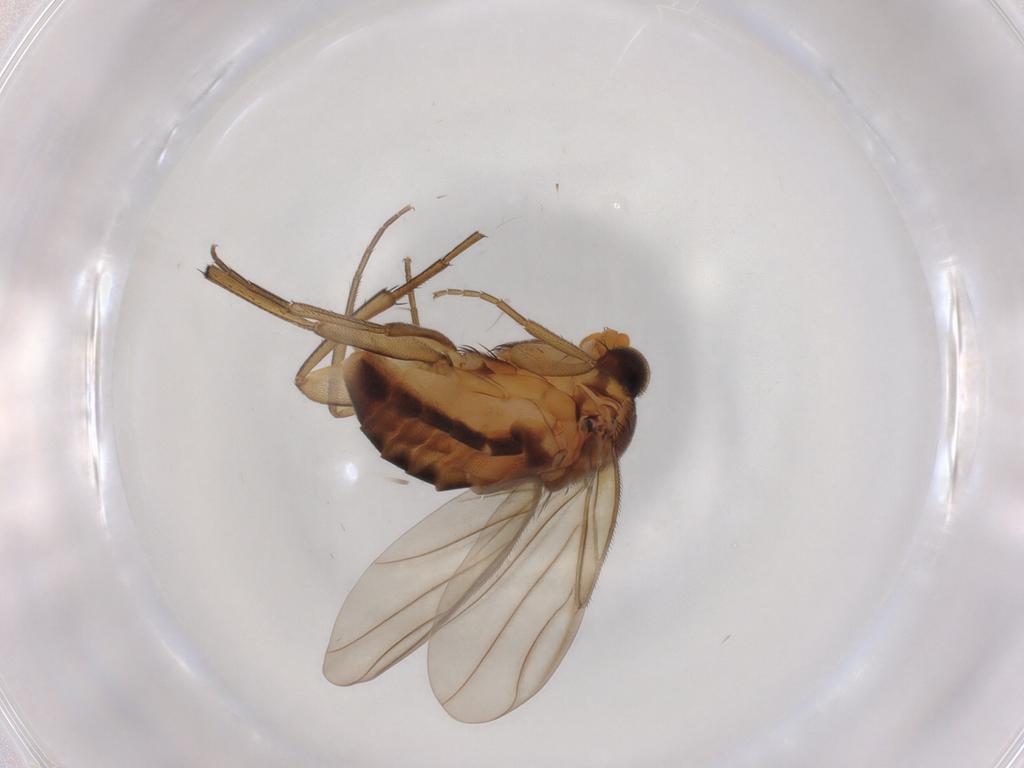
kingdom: Animalia
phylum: Arthropoda
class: Insecta
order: Diptera
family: Phoridae
